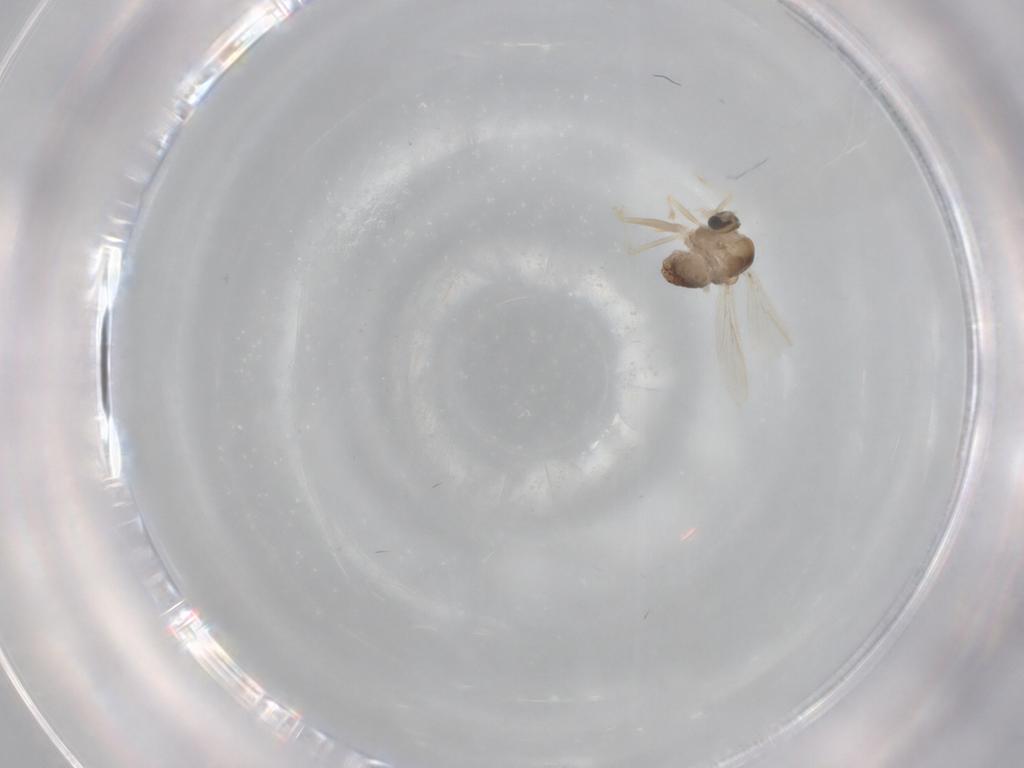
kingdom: Animalia
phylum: Arthropoda
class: Insecta
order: Diptera
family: Chironomidae
